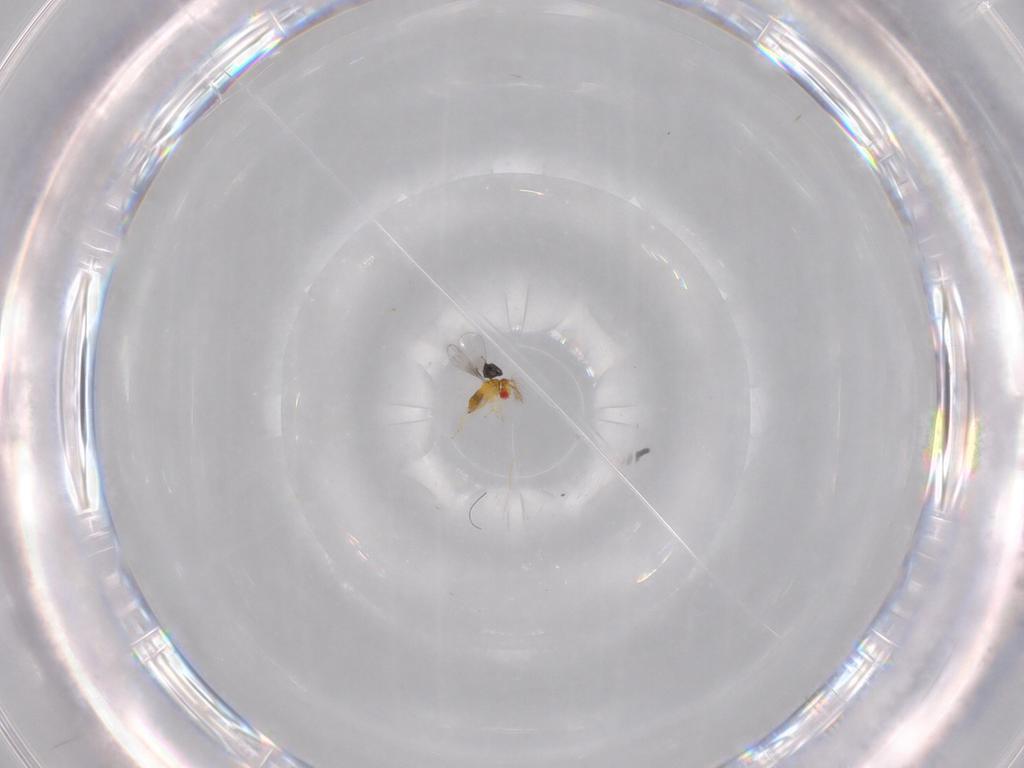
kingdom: Animalia
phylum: Arthropoda
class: Insecta
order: Hymenoptera
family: Trichogrammatidae
